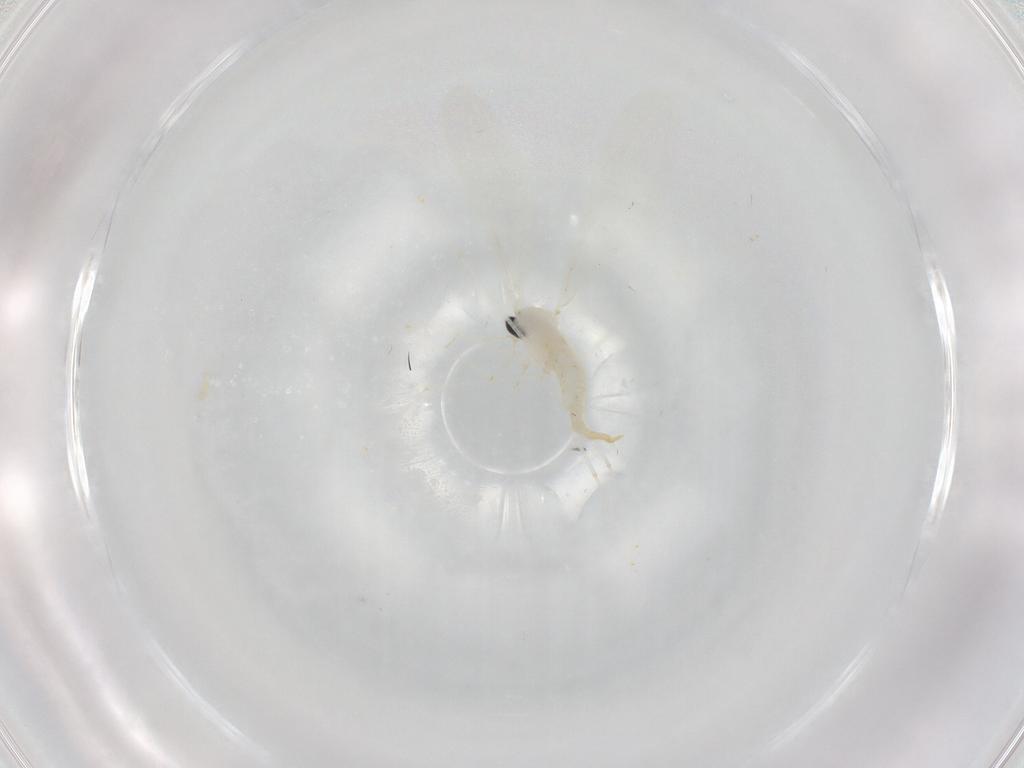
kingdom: Animalia
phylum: Arthropoda
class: Insecta
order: Diptera
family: Cecidomyiidae
